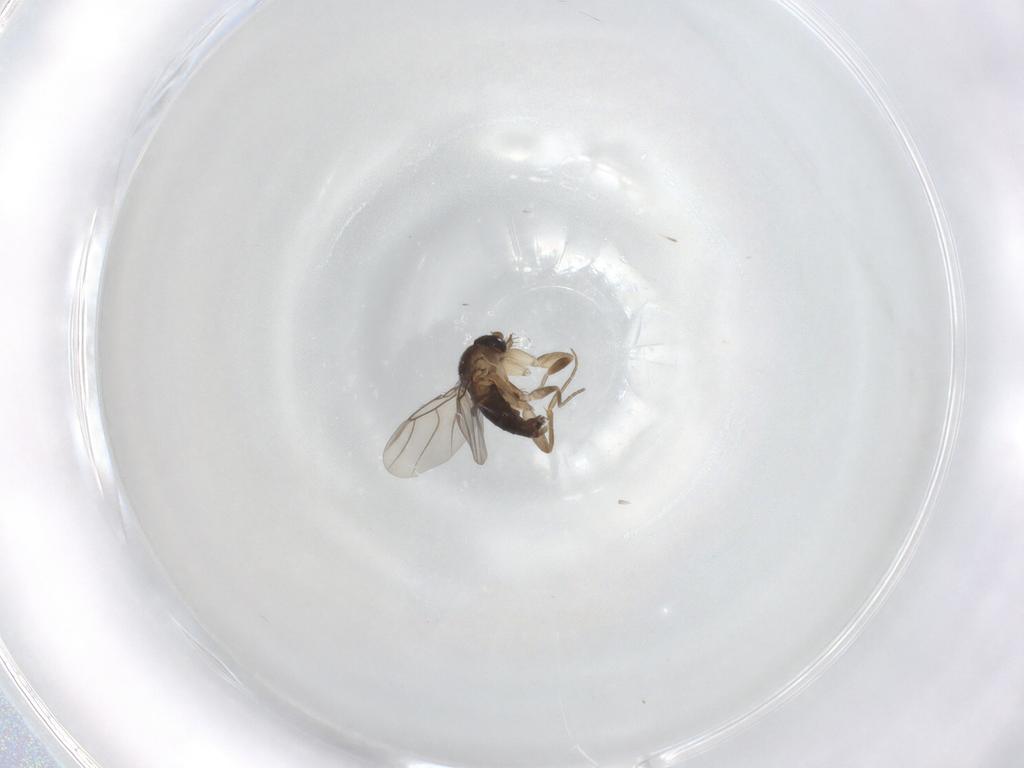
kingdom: Animalia
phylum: Arthropoda
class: Insecta
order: Diptera
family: Phoridae
